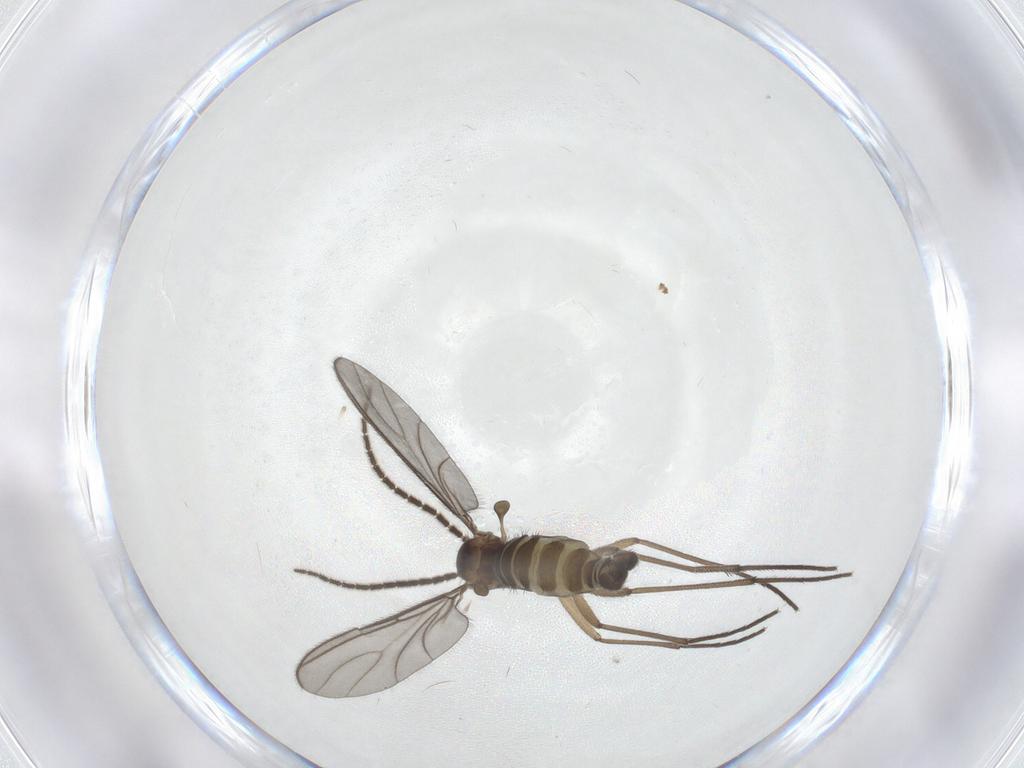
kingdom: Animalia
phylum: Arthropoda
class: Insecta
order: Diptera
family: Sciaridae
